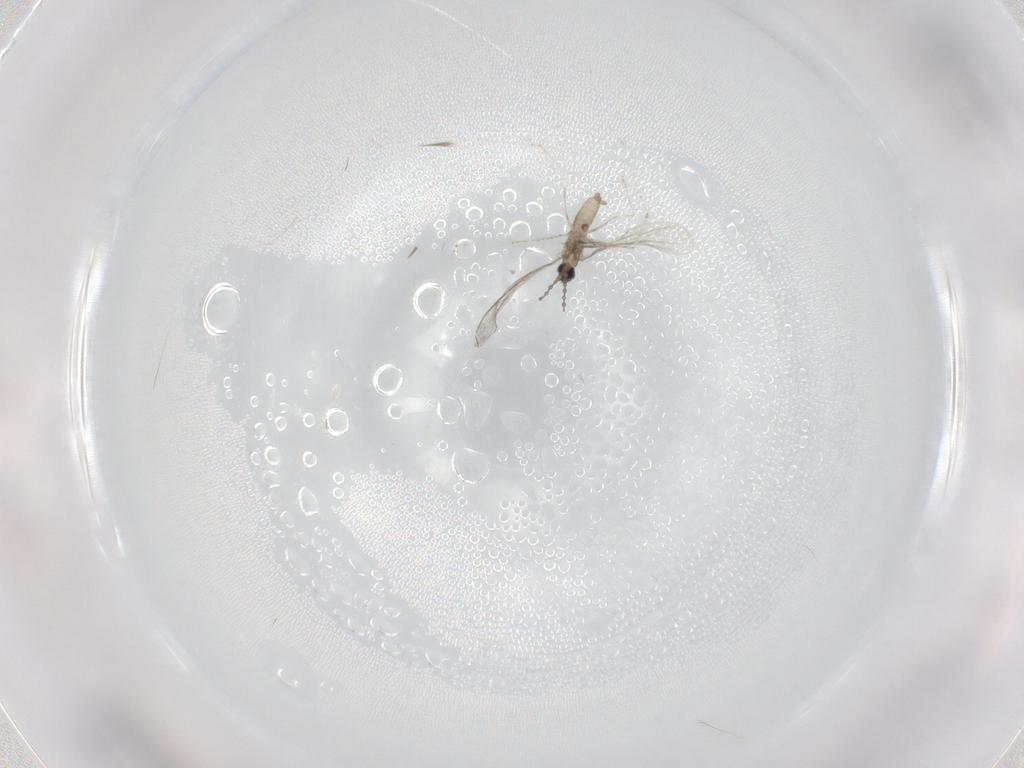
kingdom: Animalia
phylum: Arthropoda
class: Insecta
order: Diptera
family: Cecidomyiidae
